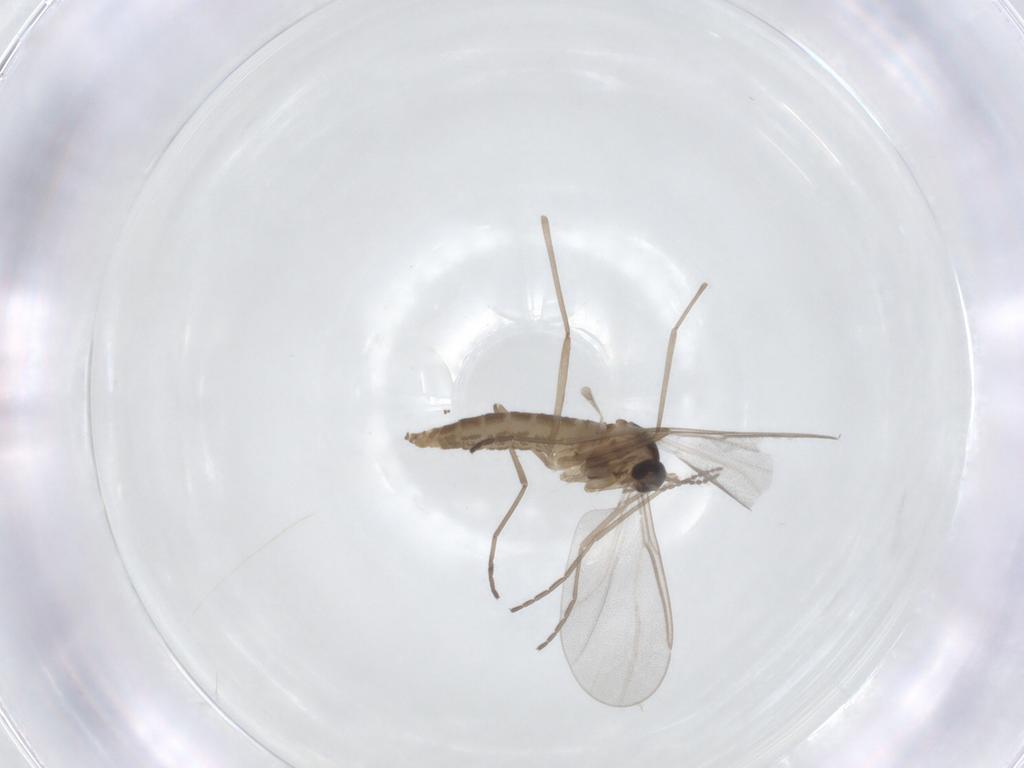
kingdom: Animalia
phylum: Arthropoda
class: Insecta
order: Diptera
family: Cecidomyiidae
